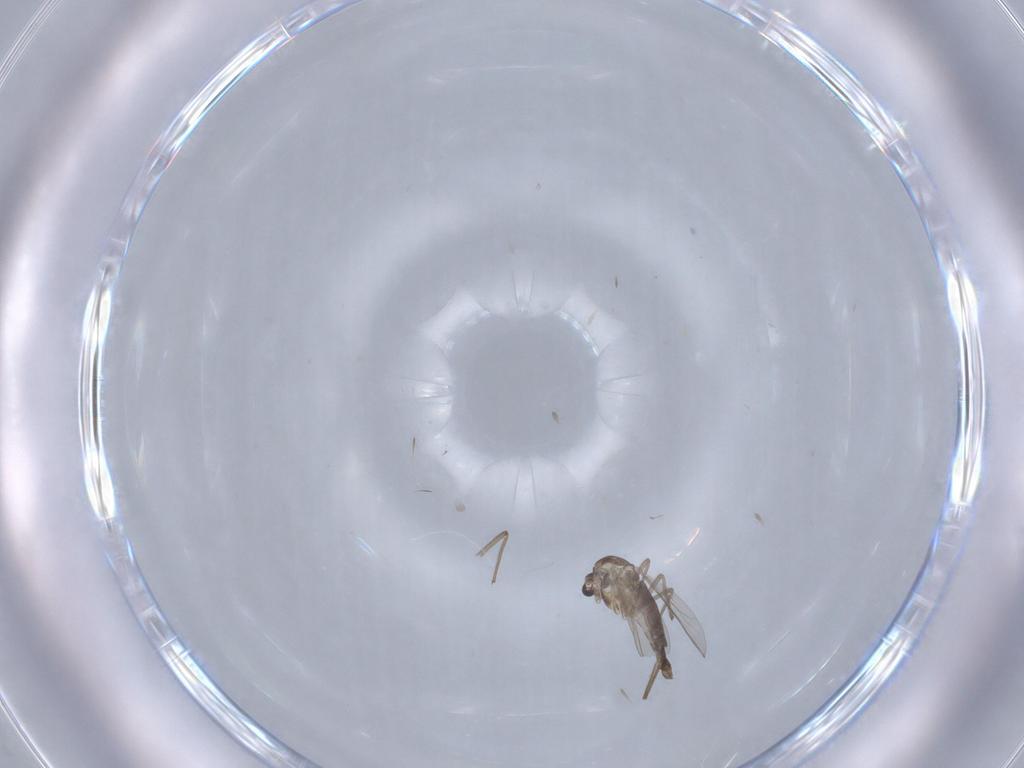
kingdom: Animalia
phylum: Arthropoda
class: Insecta
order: Diptera
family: Chironomidae
